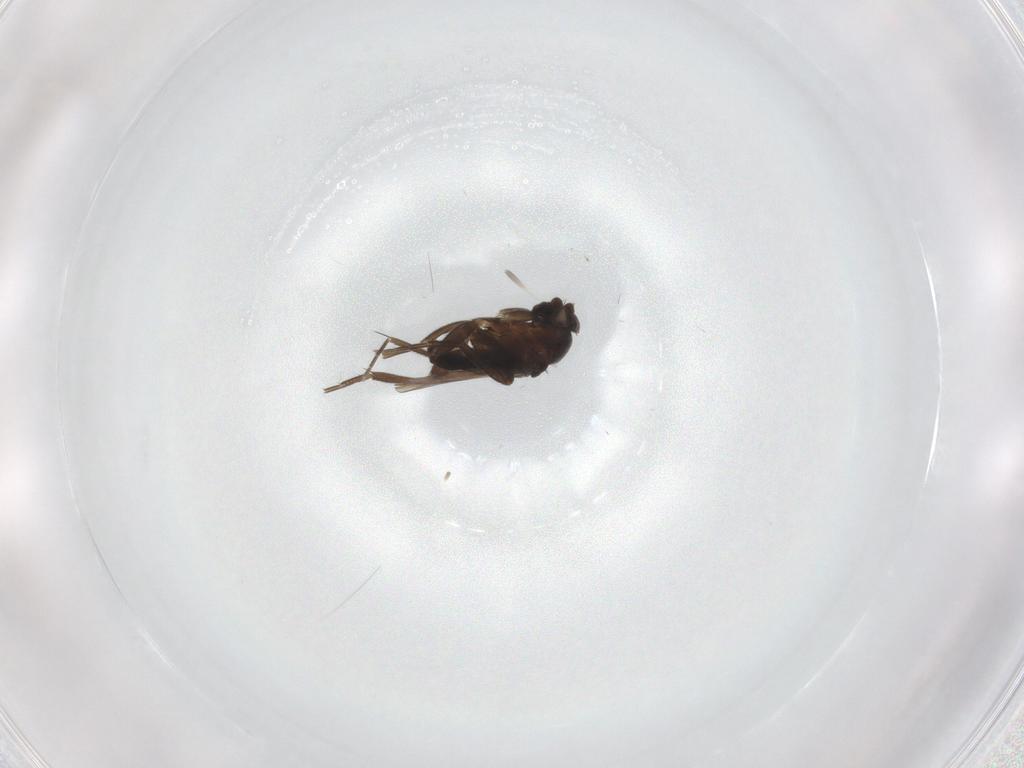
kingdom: Animalia
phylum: Arthropoda
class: Insecta
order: Diptera
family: Phoridae
